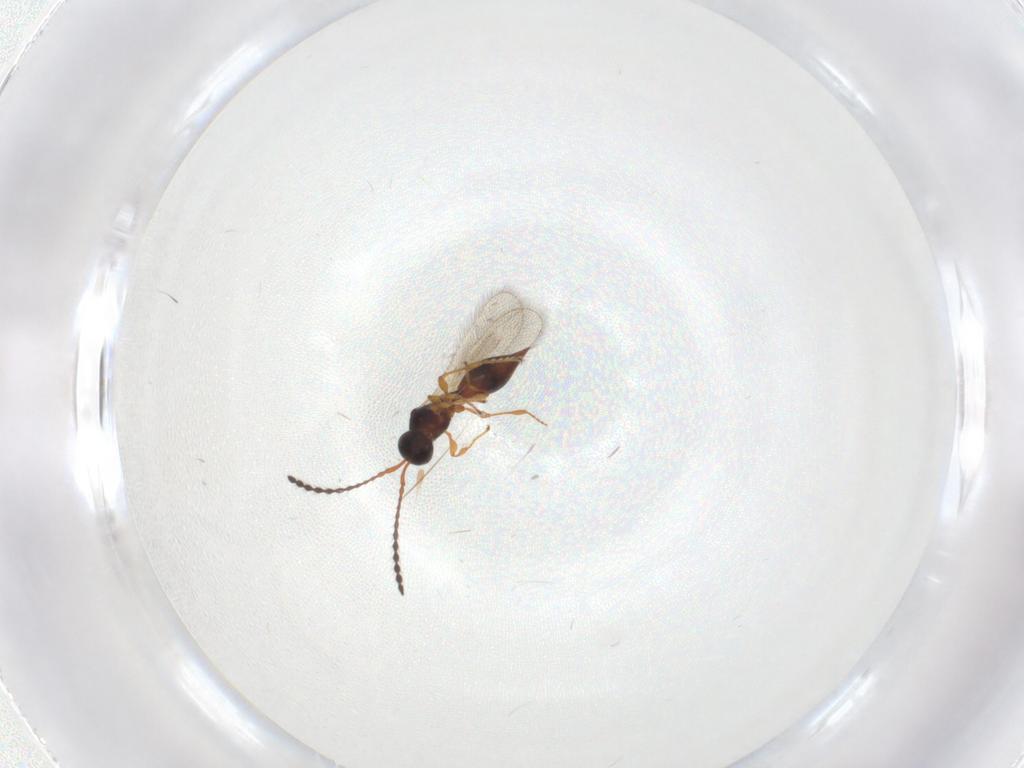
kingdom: Animalia
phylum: Arthropoda
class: Insecta
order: Hymenoptera
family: Diapriidae
